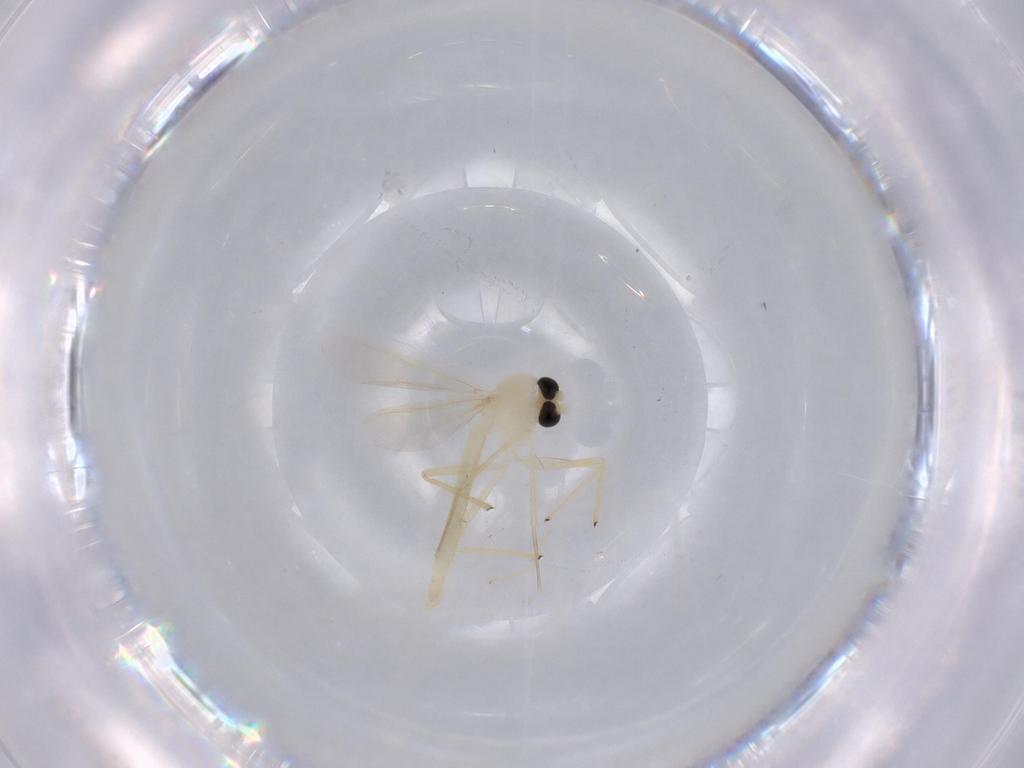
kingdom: Animalia
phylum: Arthropoda
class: Insecta
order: Diptera
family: Chironomidae
